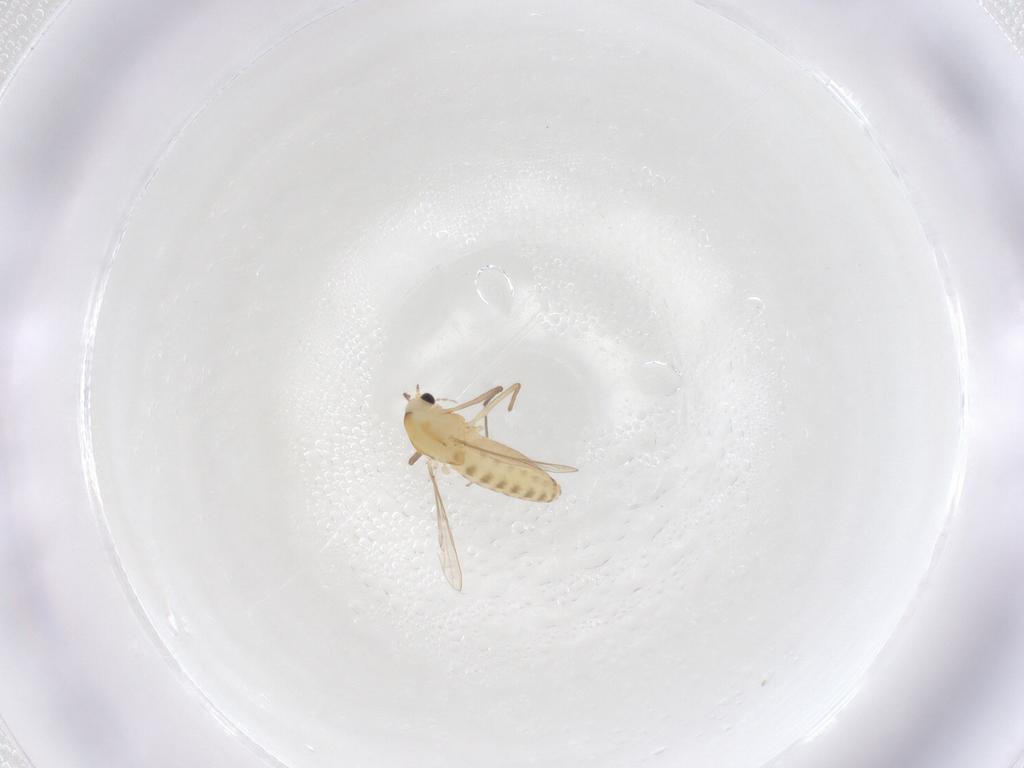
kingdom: Animalia
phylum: Arthropoda
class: Insecta
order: Diptera
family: Chironomidae
